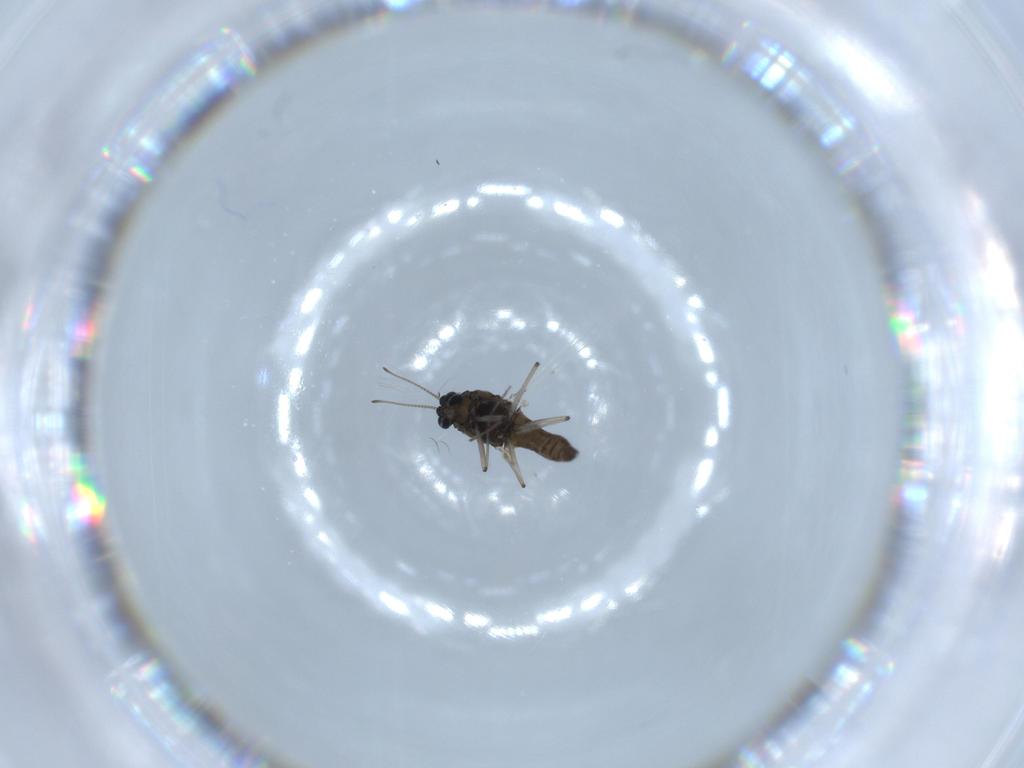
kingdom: Animalia
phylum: Arthropoda
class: Insecta
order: Diptera
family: Chironomidae
